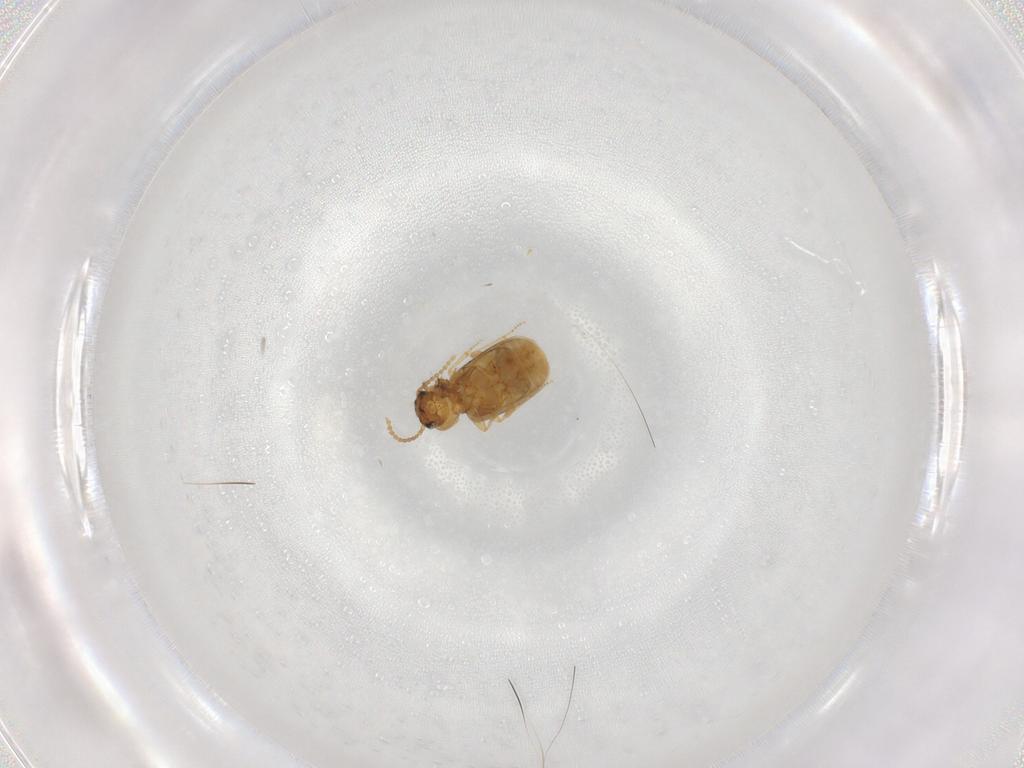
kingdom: Animalia
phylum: Arthropoda
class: Insecta
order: Coleoptera
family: Carabidae
